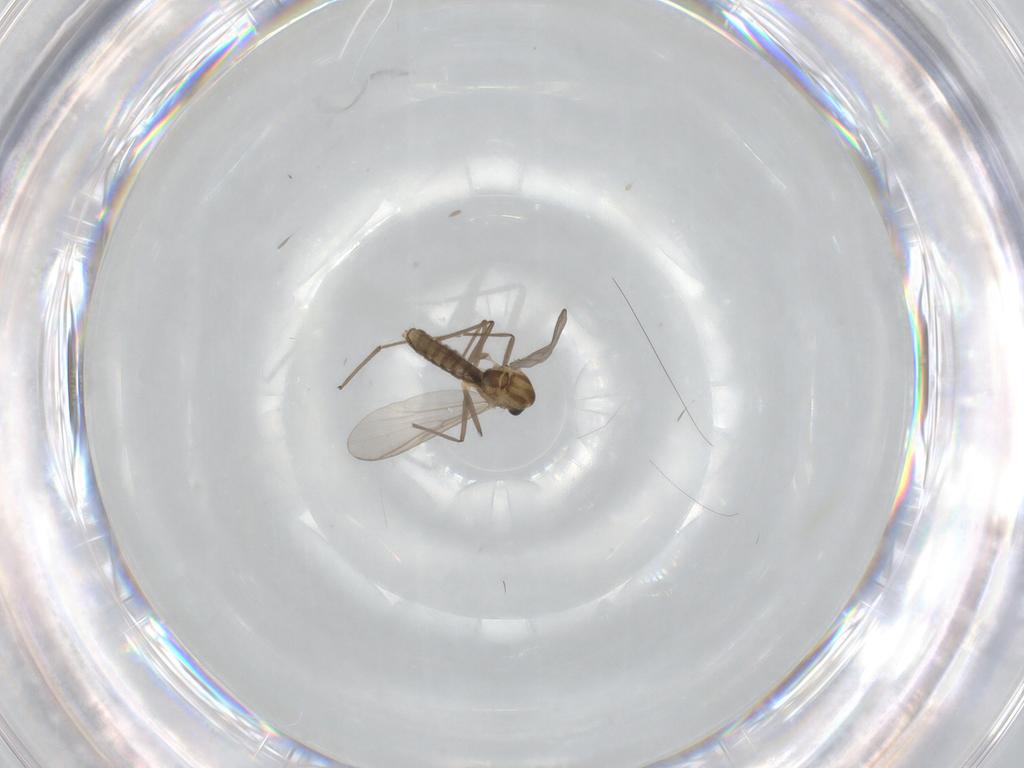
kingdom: Animalia
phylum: Arthropoda
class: Insecta
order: Diptera
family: Chironomidae
